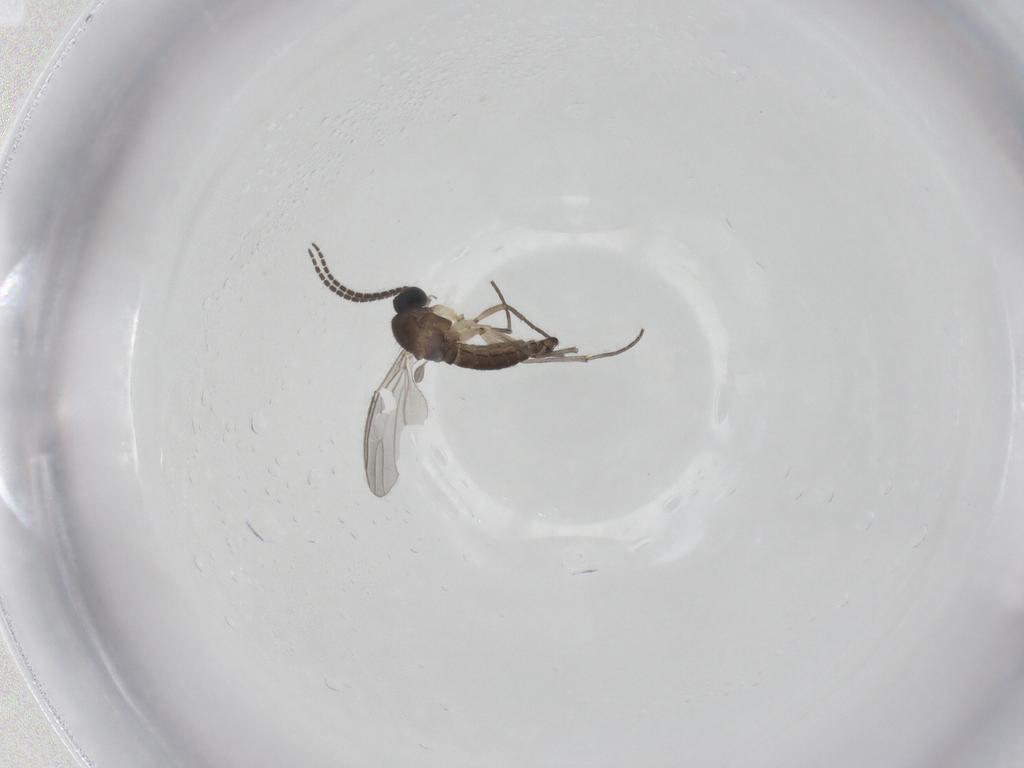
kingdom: Animalia
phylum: Arthropoda
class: Insecta
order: Diptera
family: Sciaridae
